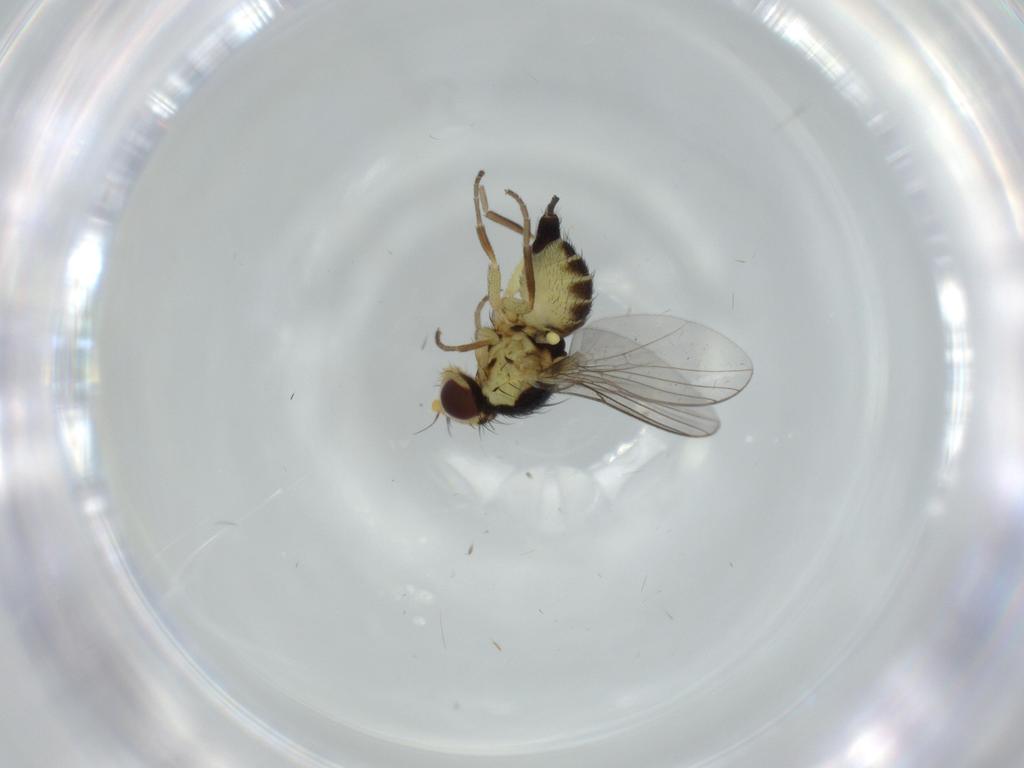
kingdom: Animalia
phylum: Arthropoda
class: Insecta
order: Diptera
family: Agromyzidae
